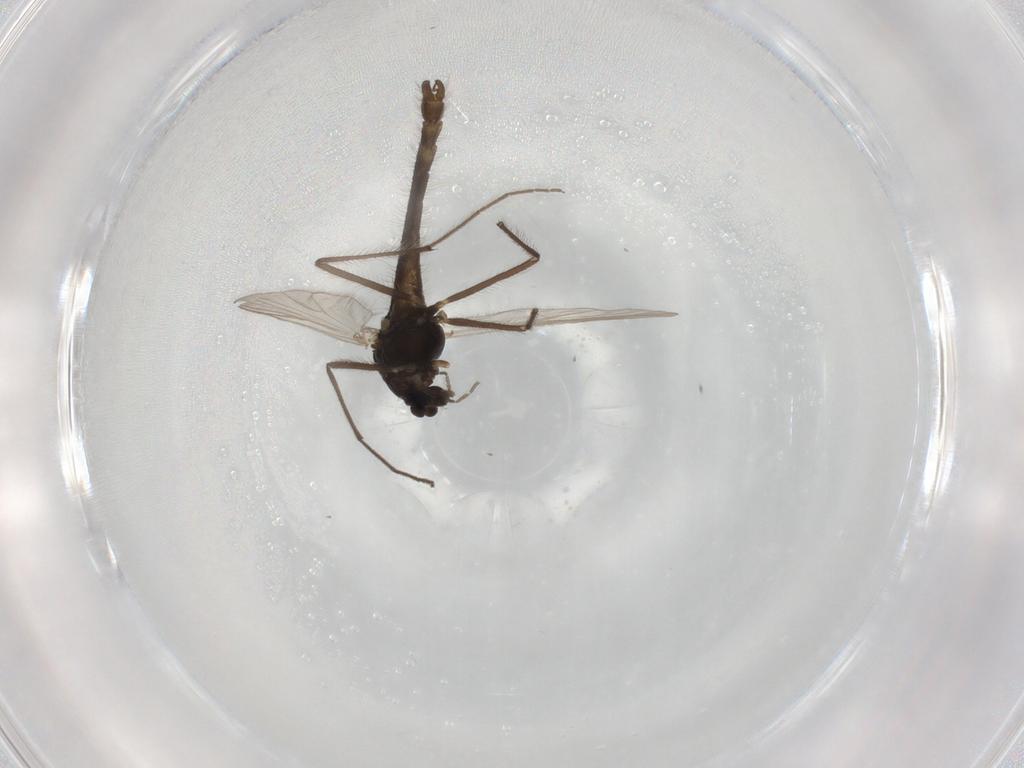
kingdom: Animalia
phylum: Arthropoda
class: Insecta
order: Diptera
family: Chironomidae
